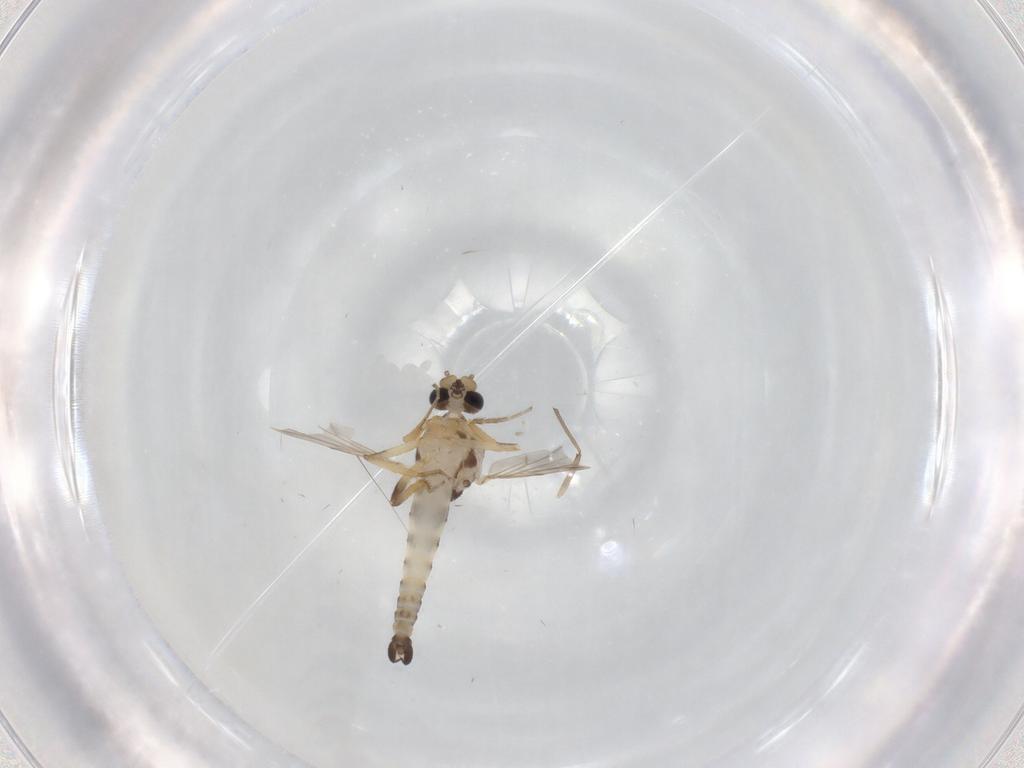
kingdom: Animalia
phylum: Arthropoda
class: Insecta
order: Diptera
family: Ceratopogonidae
